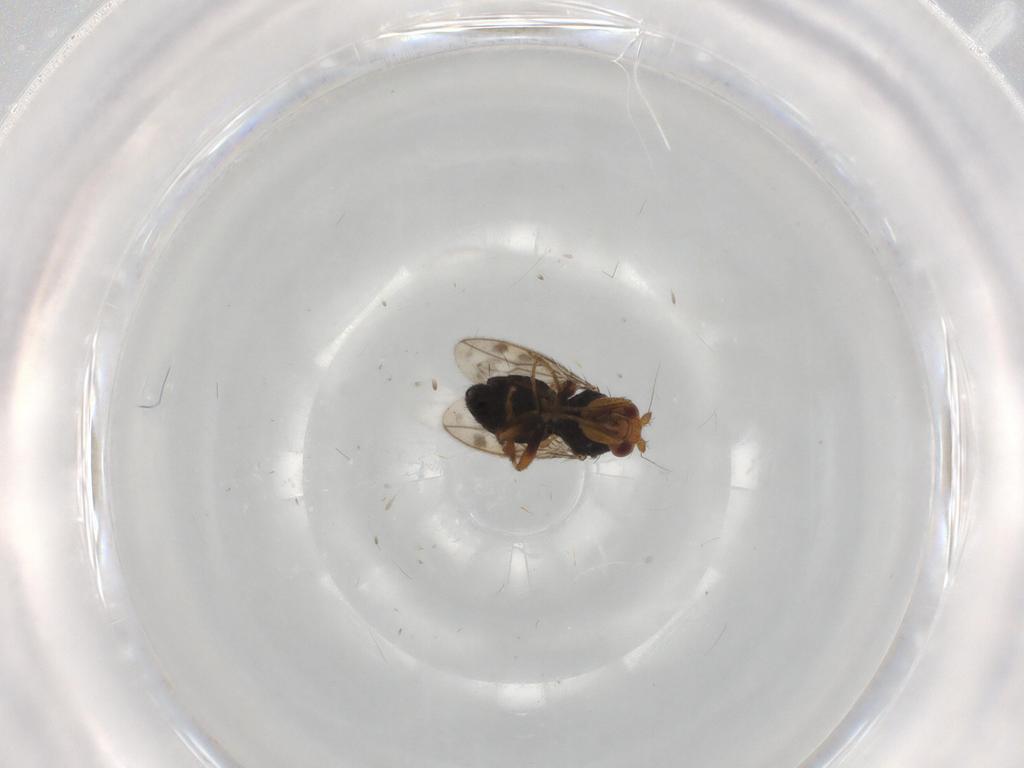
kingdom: Animalia
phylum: Arthropoda
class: Insecta
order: Diptera
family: Sphaeroceridae
